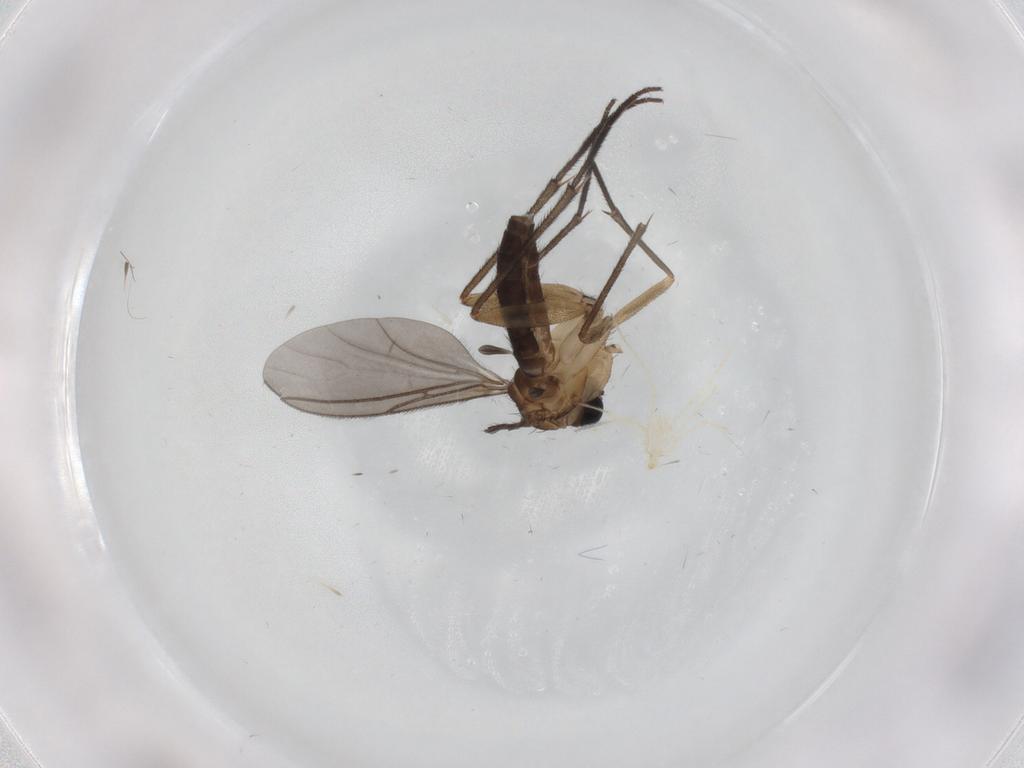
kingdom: Animalia
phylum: Arthropoda
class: Insecta
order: Diptera
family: Sciaridae
